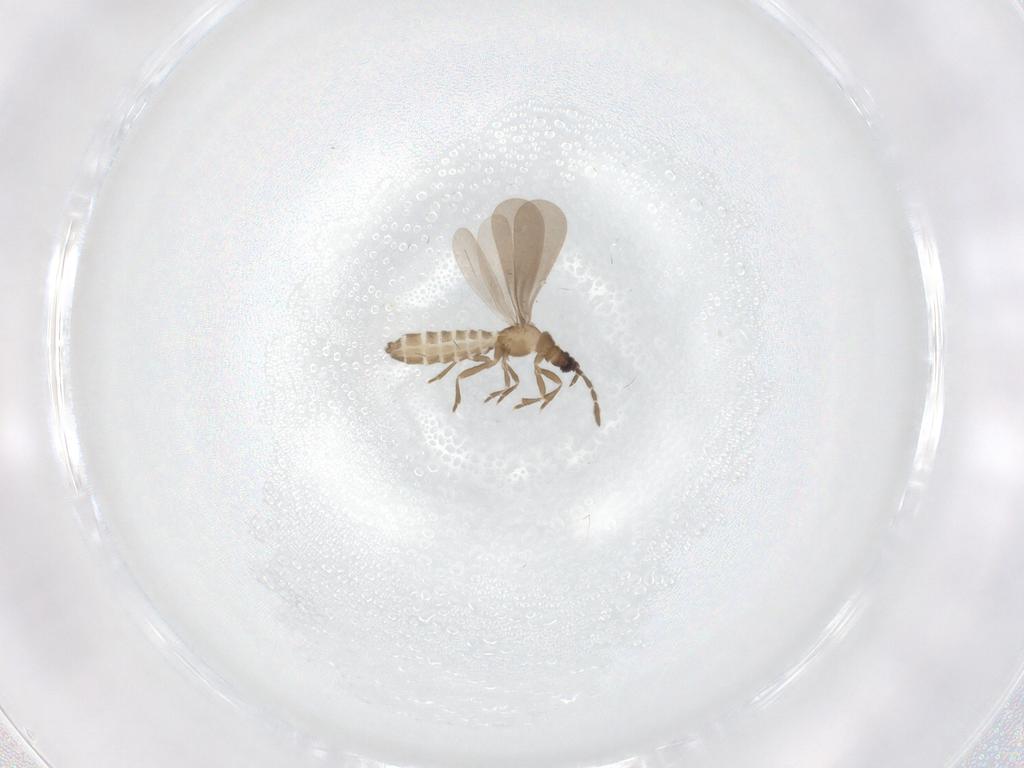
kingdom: Animalia
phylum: Arthropoda
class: Insecta
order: Hemiptera
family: Enicocephalidae
